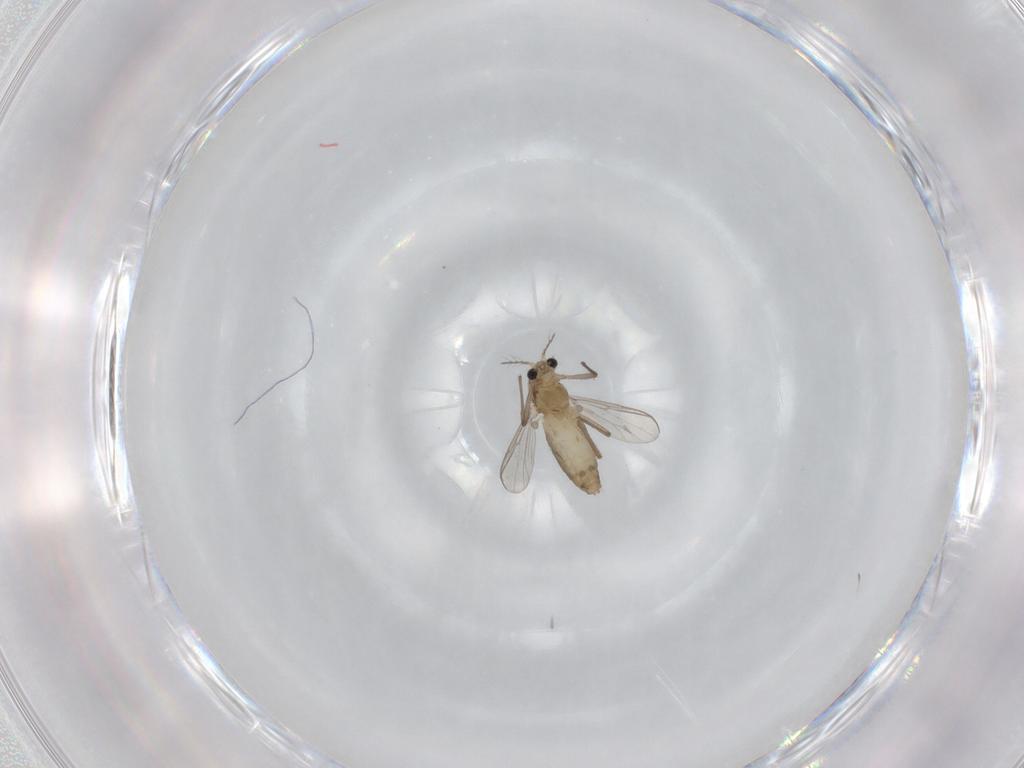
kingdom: Animalia
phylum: Arthropoda
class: Insecta
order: Diptera
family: Chironomidae
